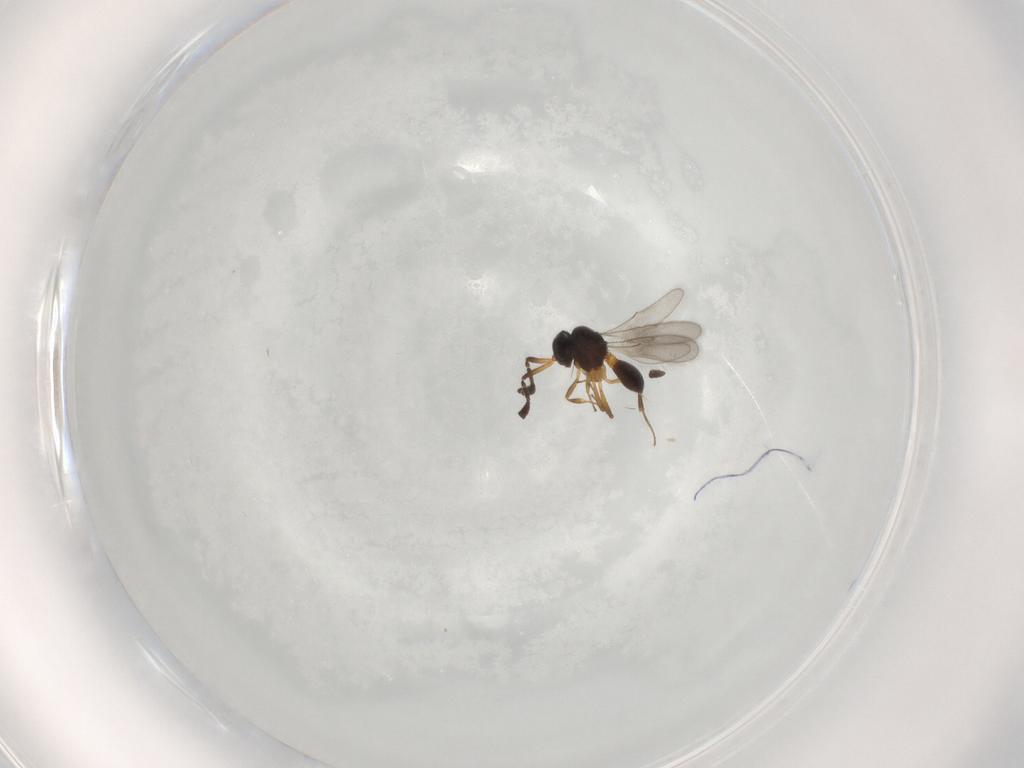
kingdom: Animalia
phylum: Arthropoda
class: Insecta
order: Hymenoptera
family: Scelionidae
